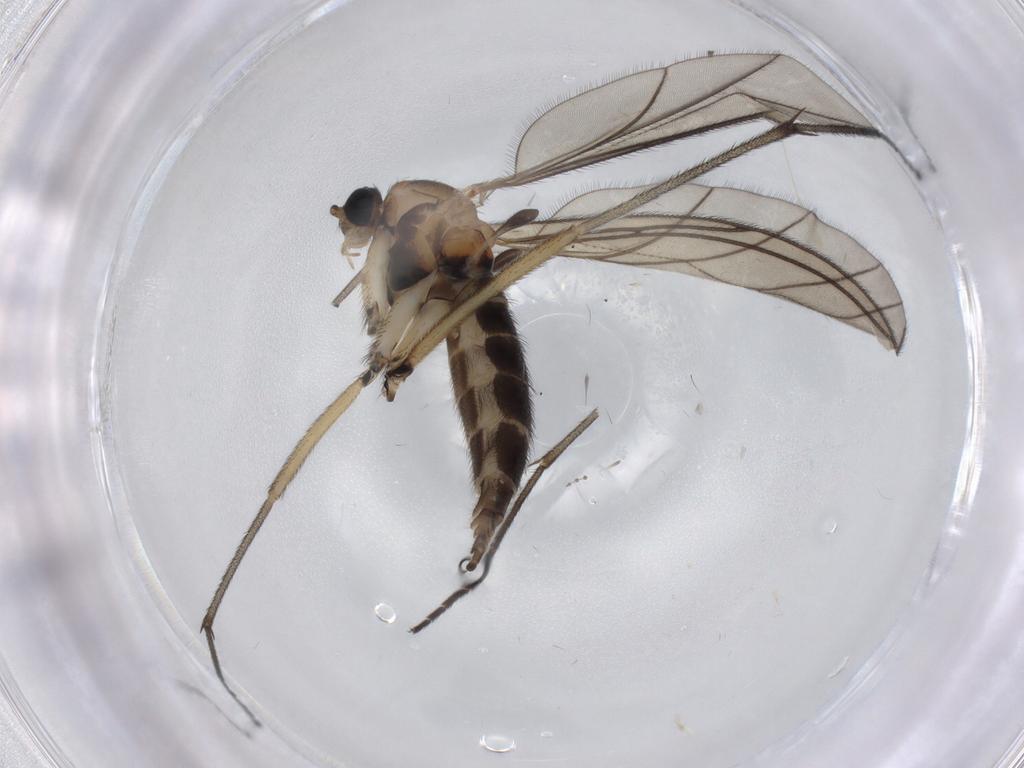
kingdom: Animalia
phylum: Arthropoda
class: Insecta
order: Diptera
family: Sciaridae
